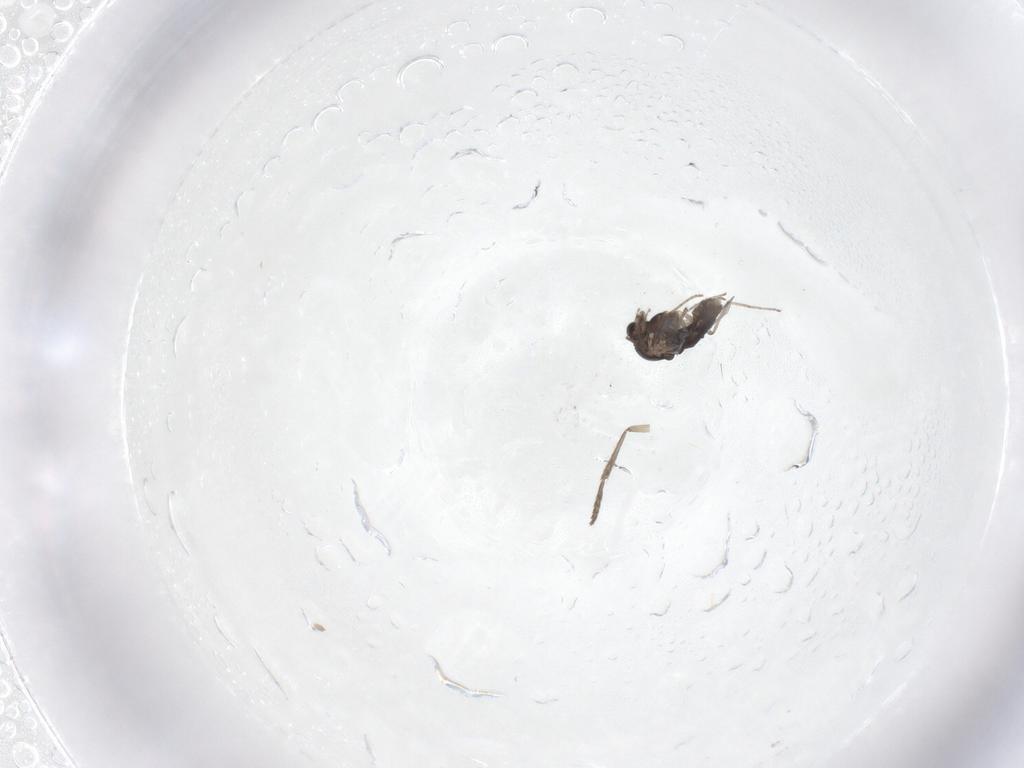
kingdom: Animalia
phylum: Arthropoda
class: Insecta
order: Diptera
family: Chironomidae
